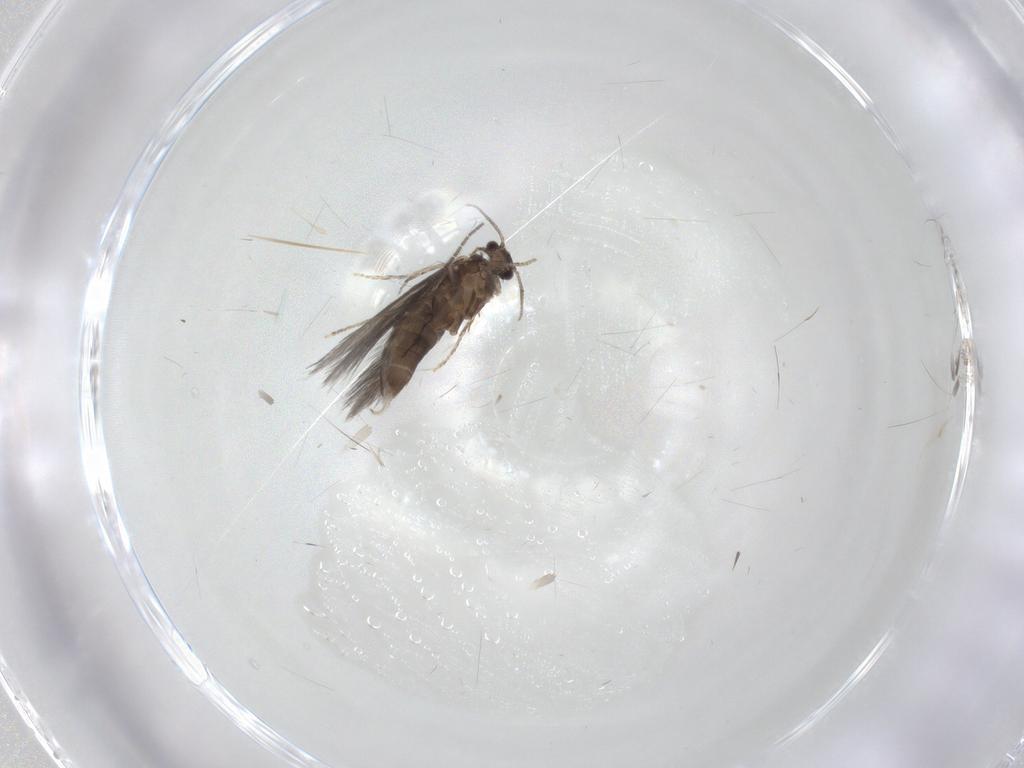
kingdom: Animalia
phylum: Arthropoda
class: Insecta
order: Trichoptera
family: Hydroptilidae
